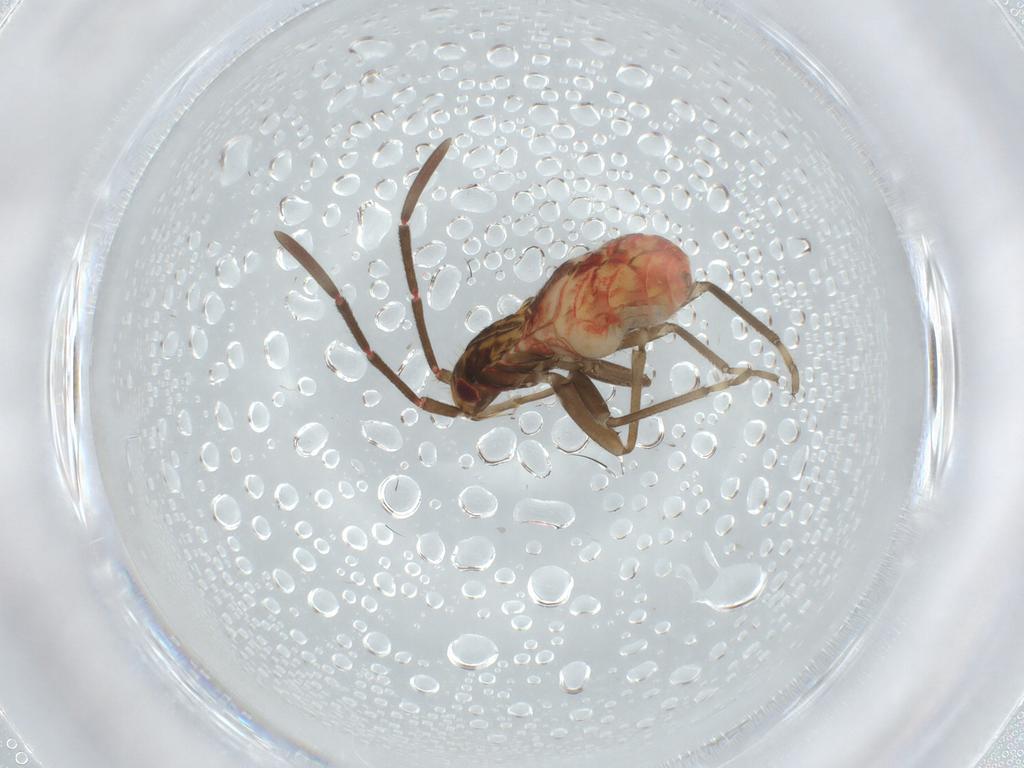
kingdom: Animalia
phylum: Arthropoda
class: Insecta
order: Hemiptera
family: Rhyparochromidae
